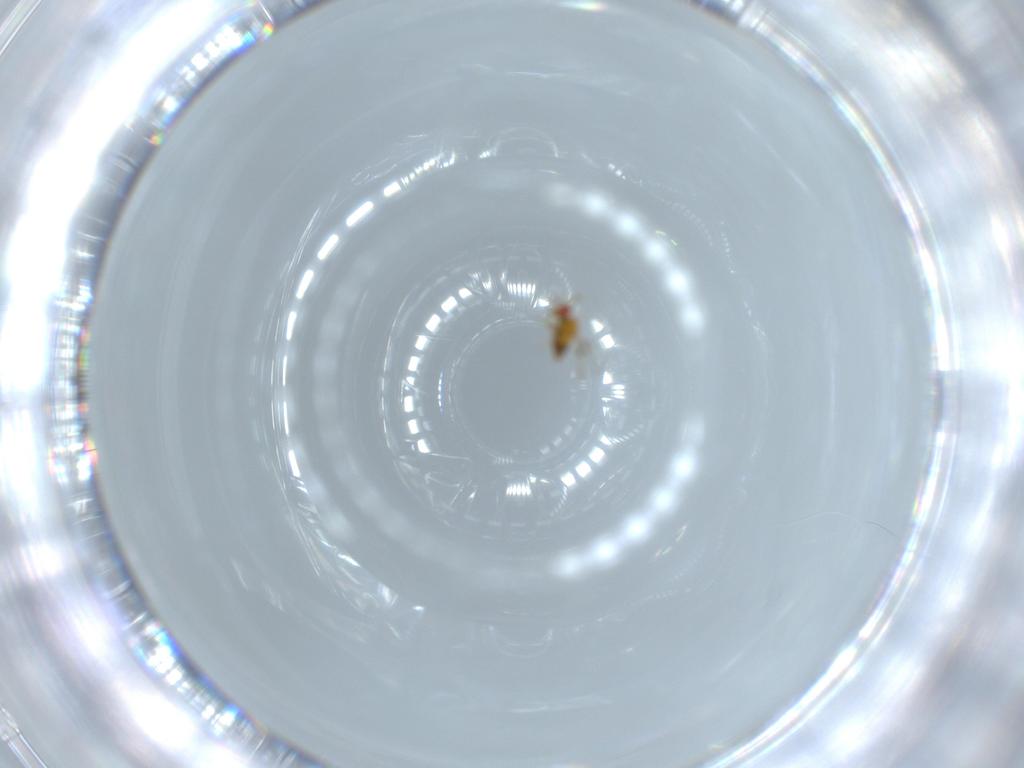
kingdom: Animalia
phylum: Arthropoda
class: Insecta
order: Hymenoptera
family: Trichogrammatidae
